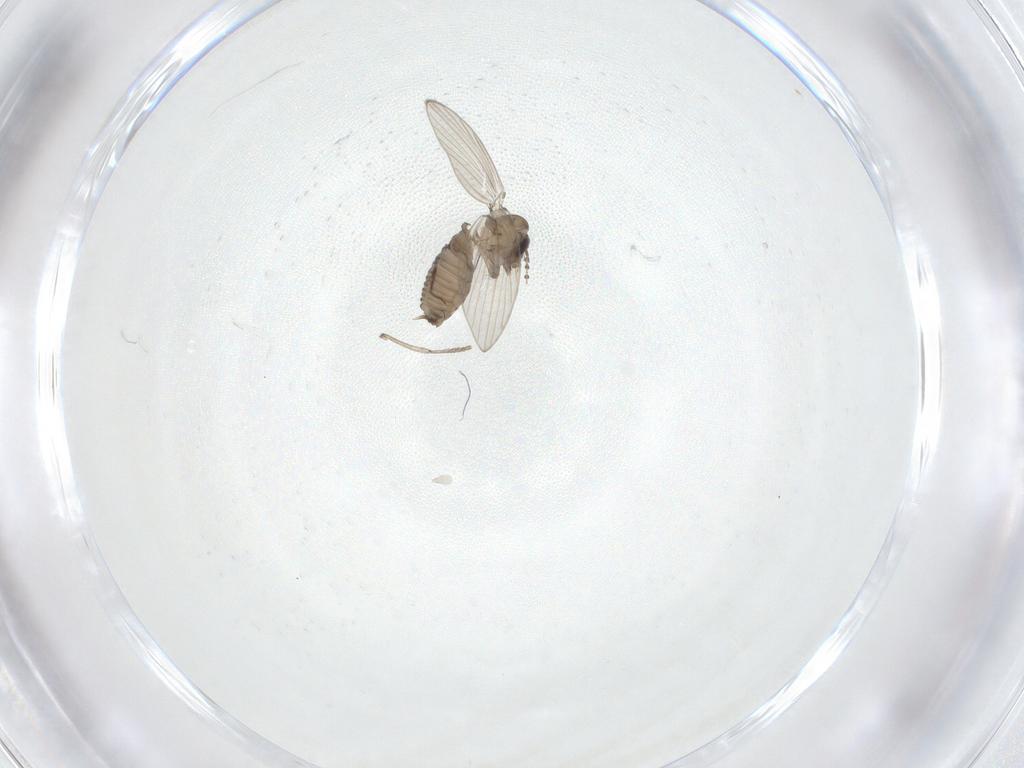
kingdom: Animalia
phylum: Arthropoda
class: Insecta
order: Diptera
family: Psychodidae
